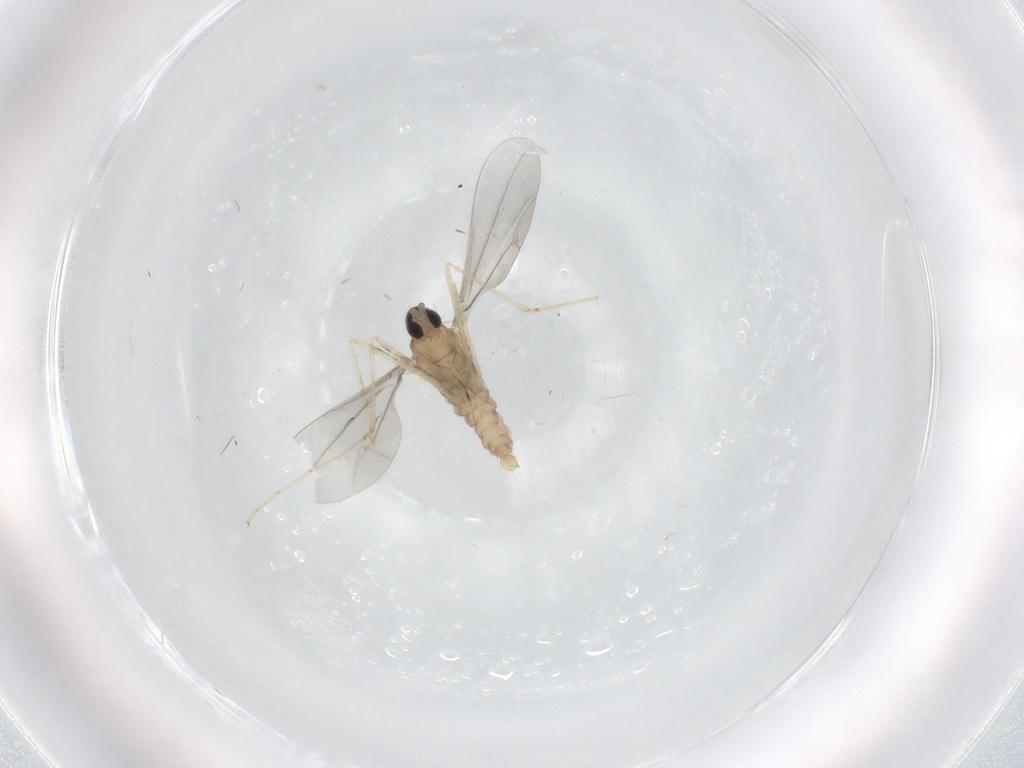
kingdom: Animalia
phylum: Arthropoda
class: Insecta
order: Diptera
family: Cecidomyiidae
